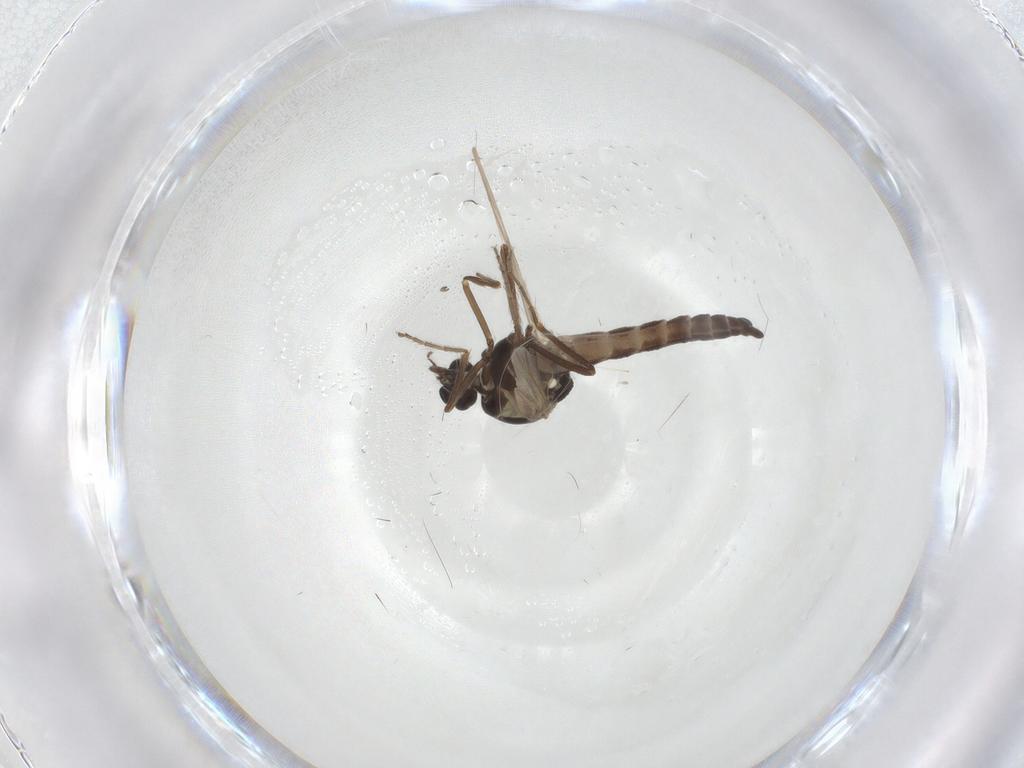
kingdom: Animalia
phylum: Arthropoda
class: Insecta
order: Diptera
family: Ceratopogonidae
